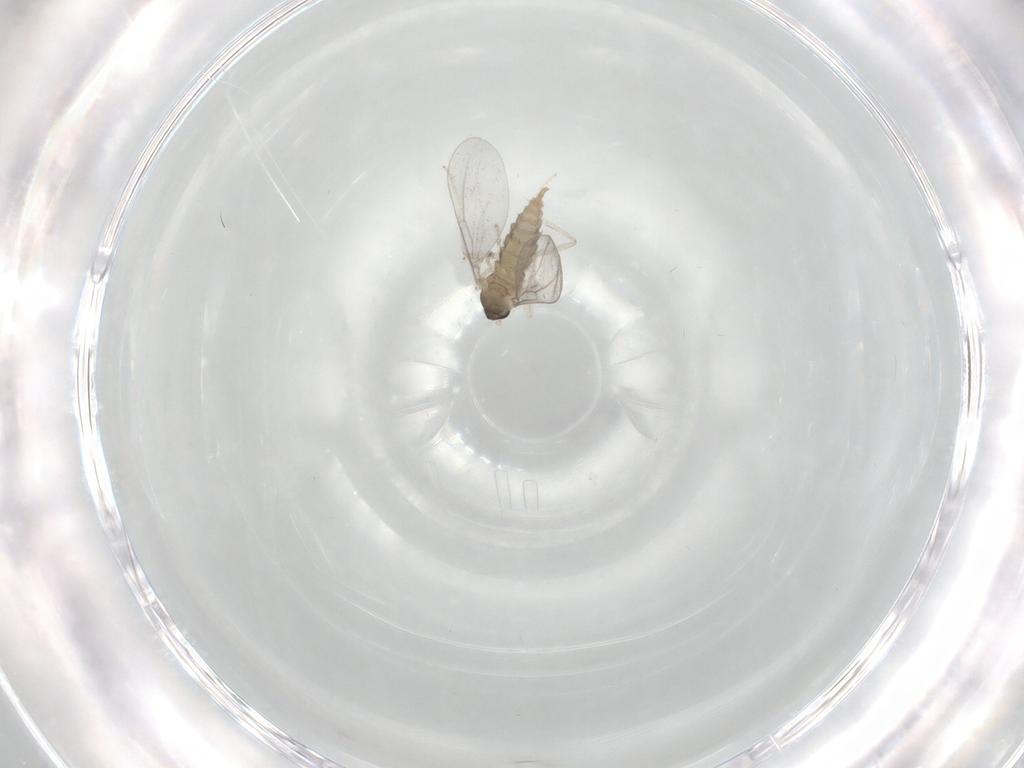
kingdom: Animalia
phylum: Arthropoda
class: Insecta
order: Diptera
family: Cecidomyiidae
